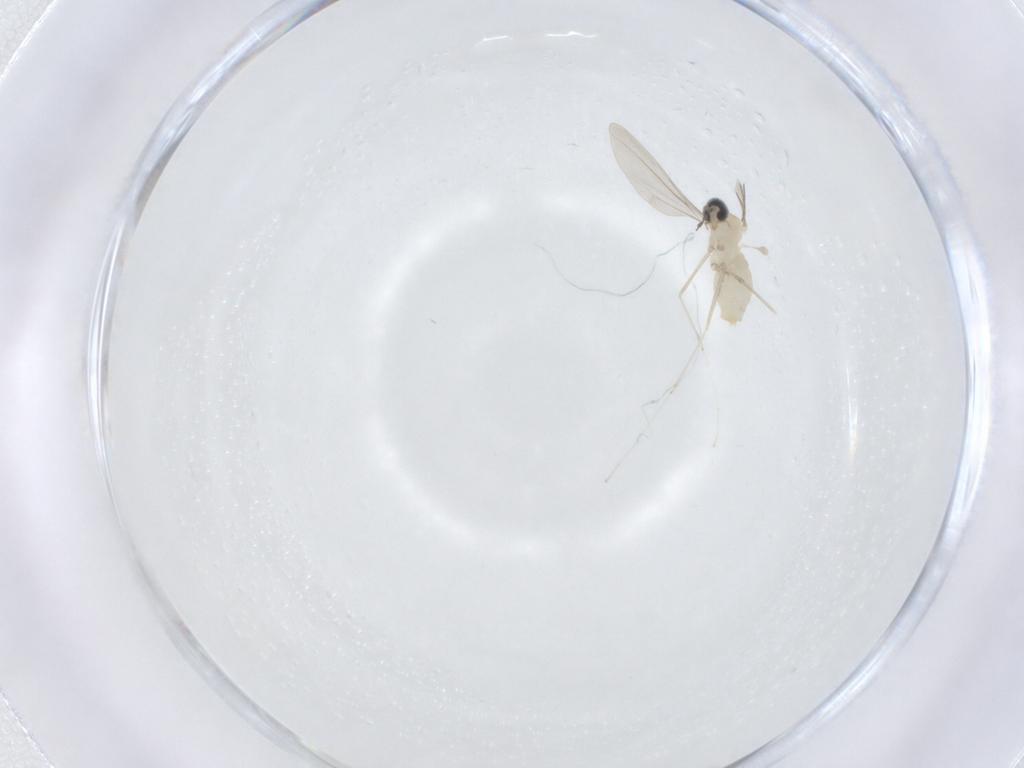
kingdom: Animalia
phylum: Arthropoda
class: Insecta
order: Diptera
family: Cecidomyiidae
